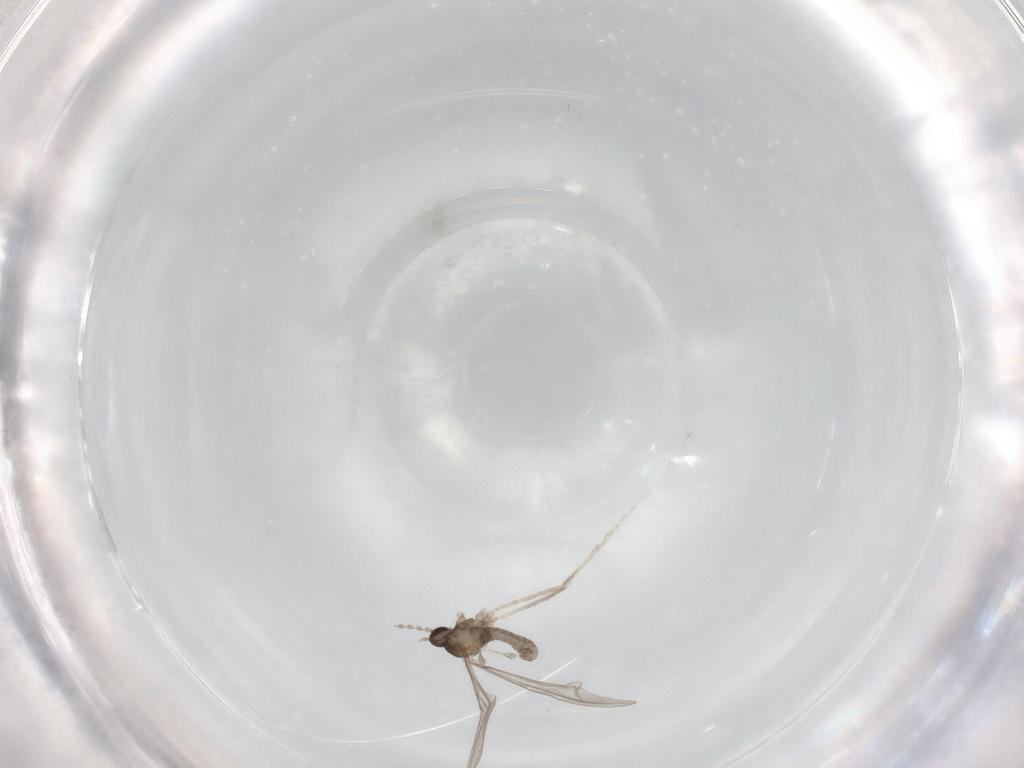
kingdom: Animalia
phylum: Arthropoda
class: Insecta
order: Diptera
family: Cecidomyiidae
